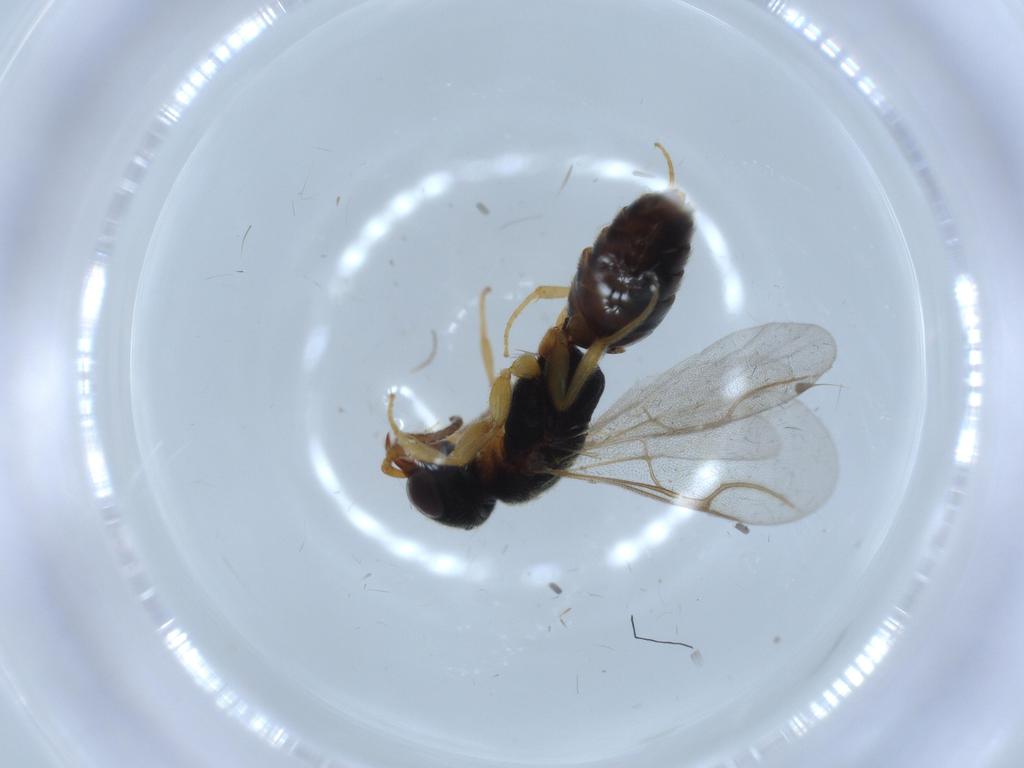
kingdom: Animalia
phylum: Arthropoda
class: Insecta
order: Hymenoptera
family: Bethylidae
